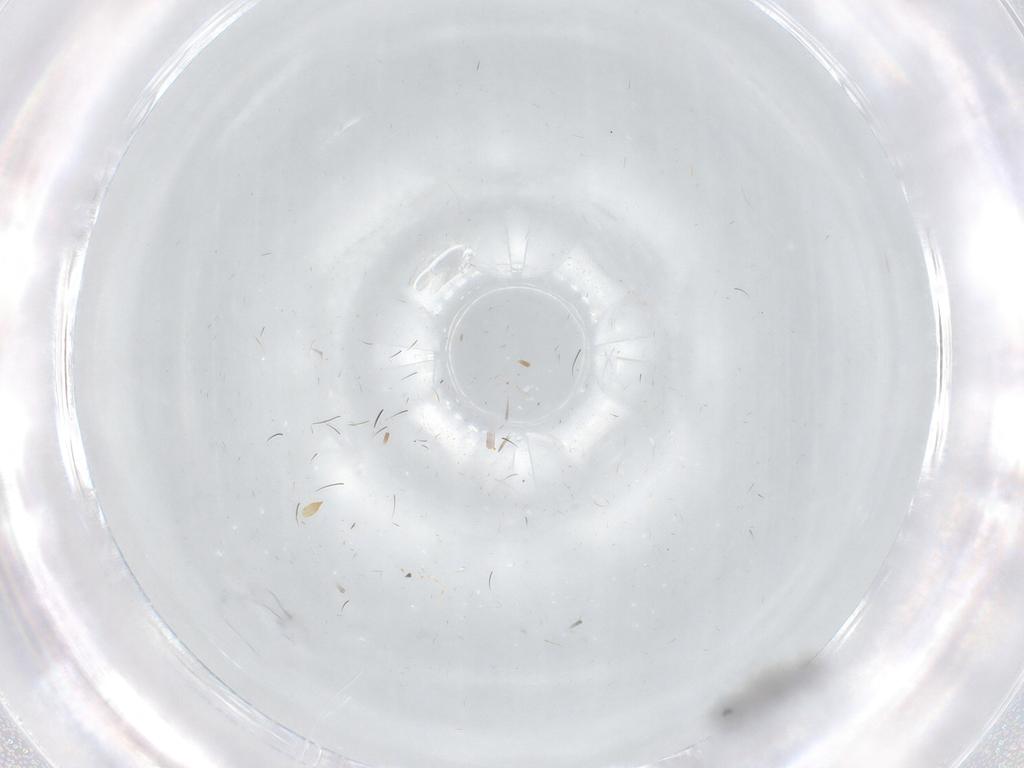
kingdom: Animalia
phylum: Arthropoda
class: Insecta
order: Diptera
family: Sciaridae
